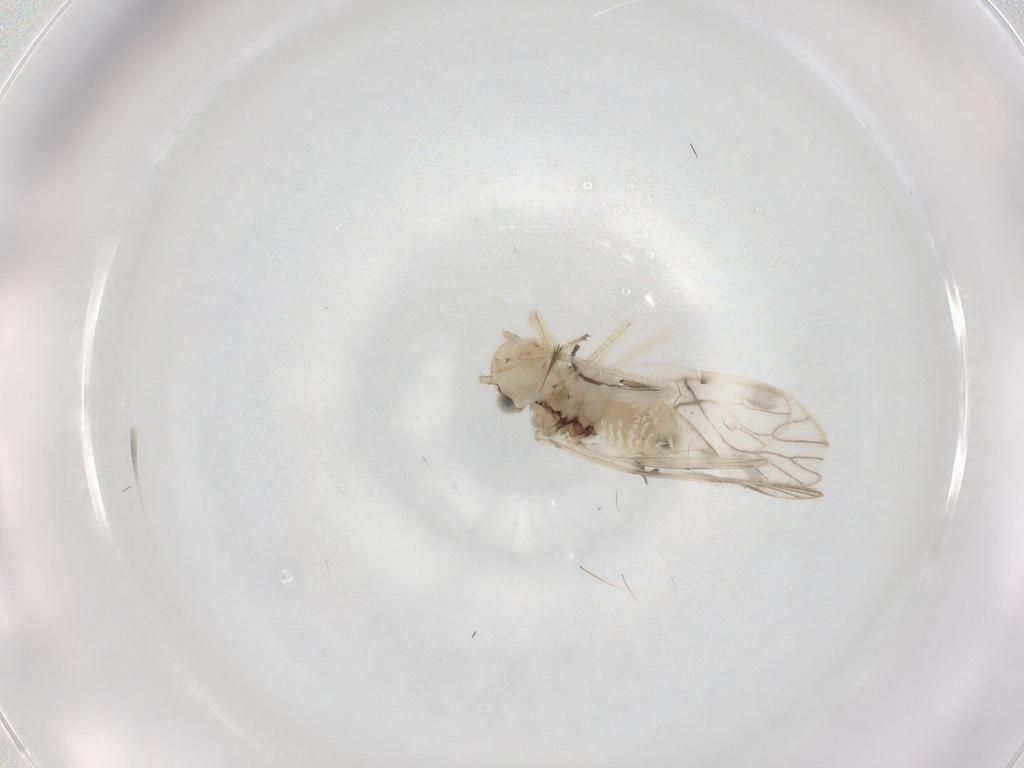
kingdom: Animalia
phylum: Arthropoda
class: Insecta
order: Psocodea
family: Caeciliusidae
